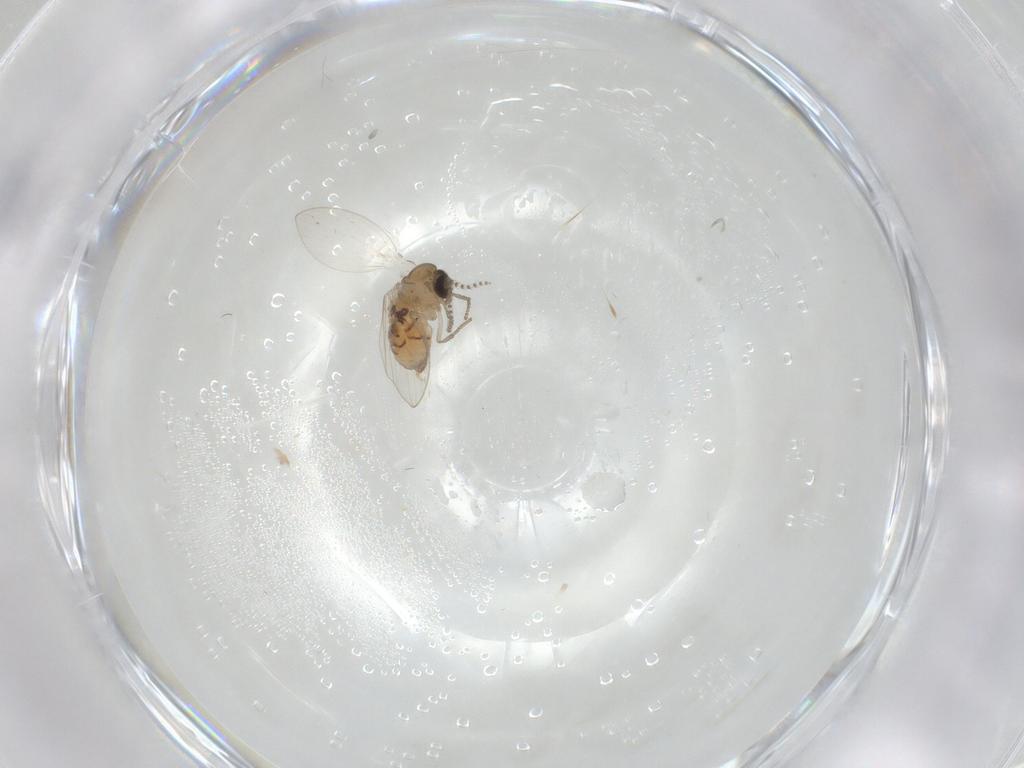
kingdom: Animalia
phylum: Arthropoda
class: Insecta
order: Diptera
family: Psychodidae
